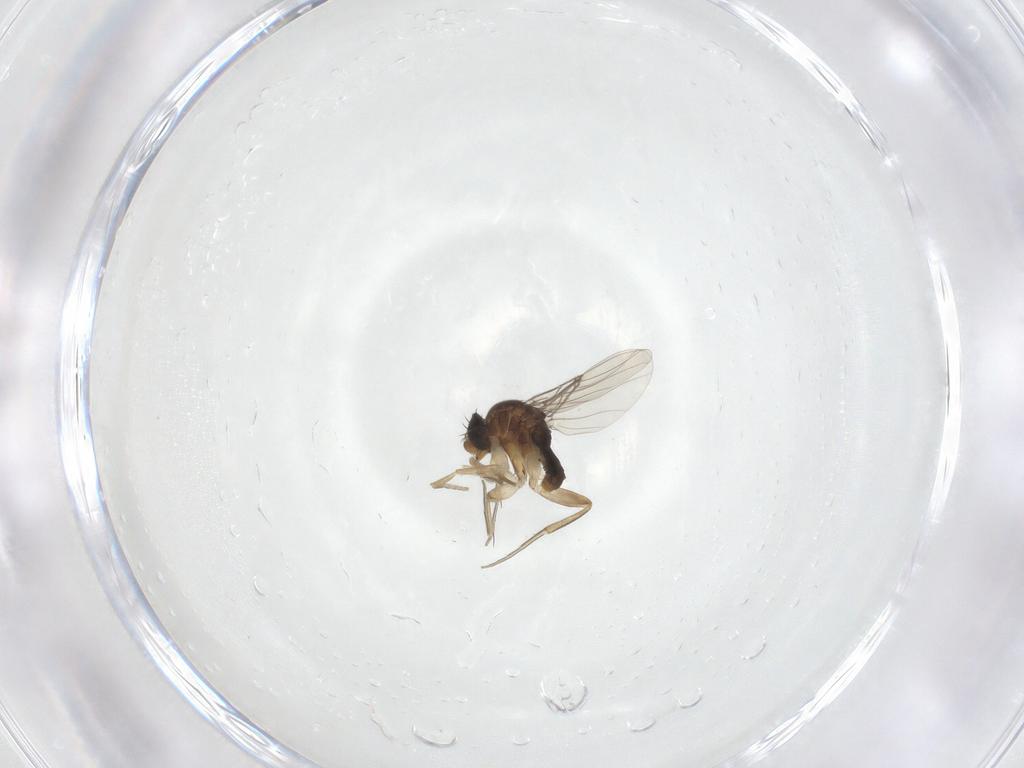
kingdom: Animalia
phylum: Arthropoda
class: Insecta
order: Diptera
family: Phoridae
